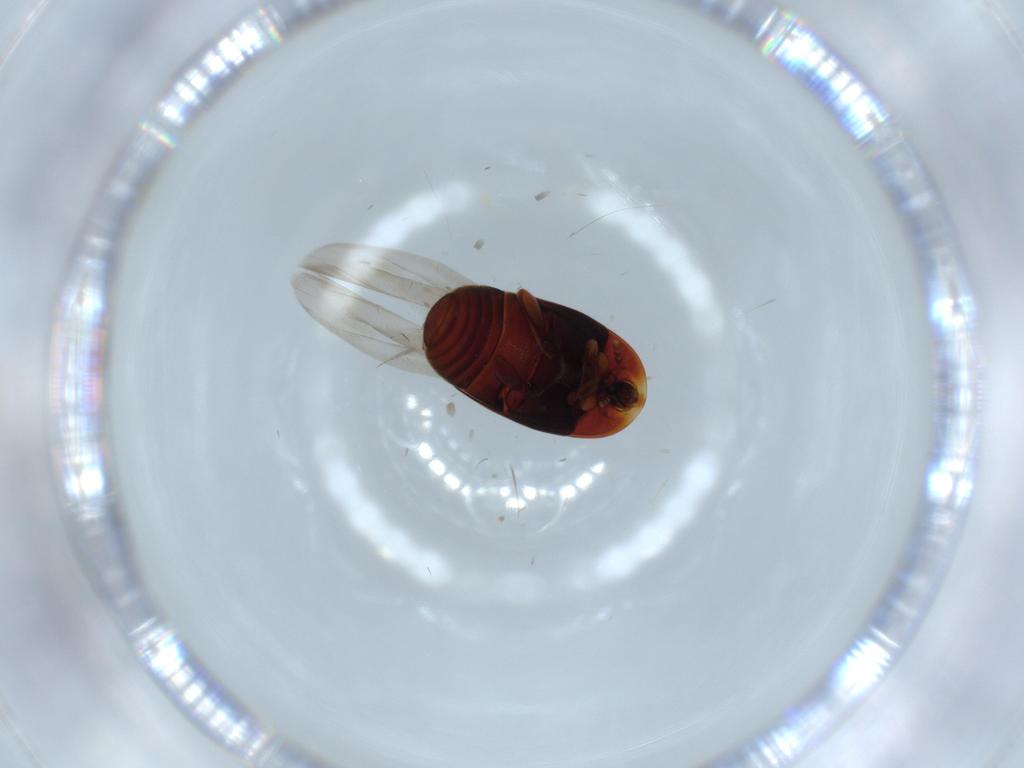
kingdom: Animalia
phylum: Arthropoda
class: Insecta
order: Coleoptera
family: Corylophidae
